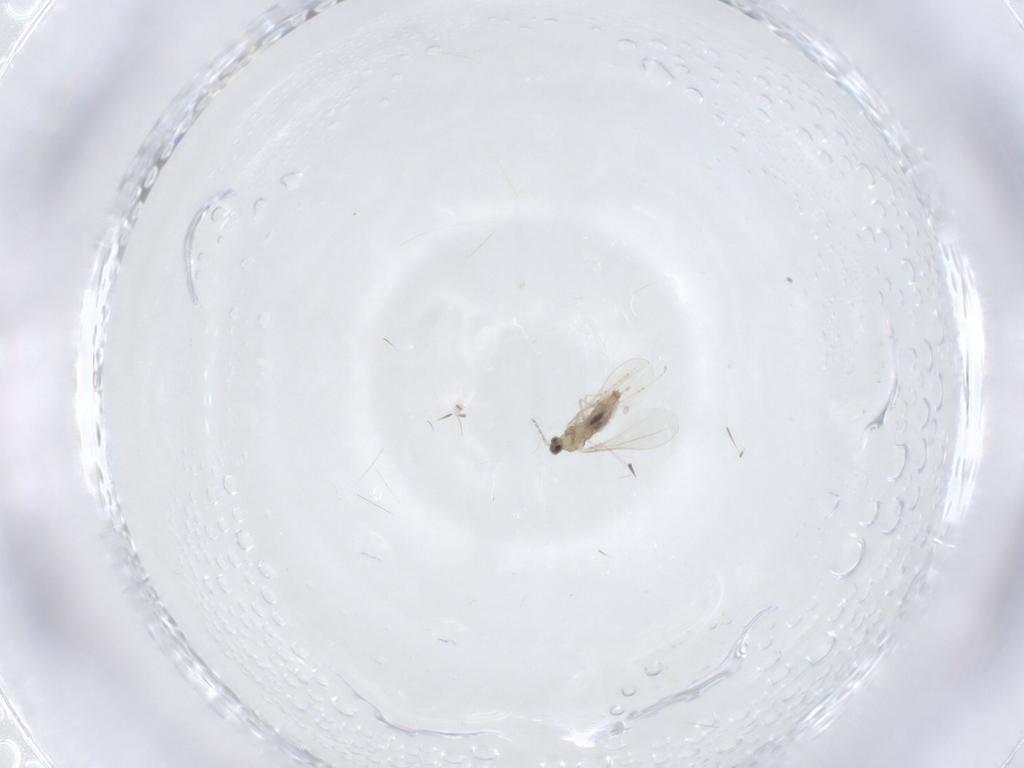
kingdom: Animalia
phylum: Arthropoda
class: Insecta
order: Diptera
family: Cecidomyiidae
